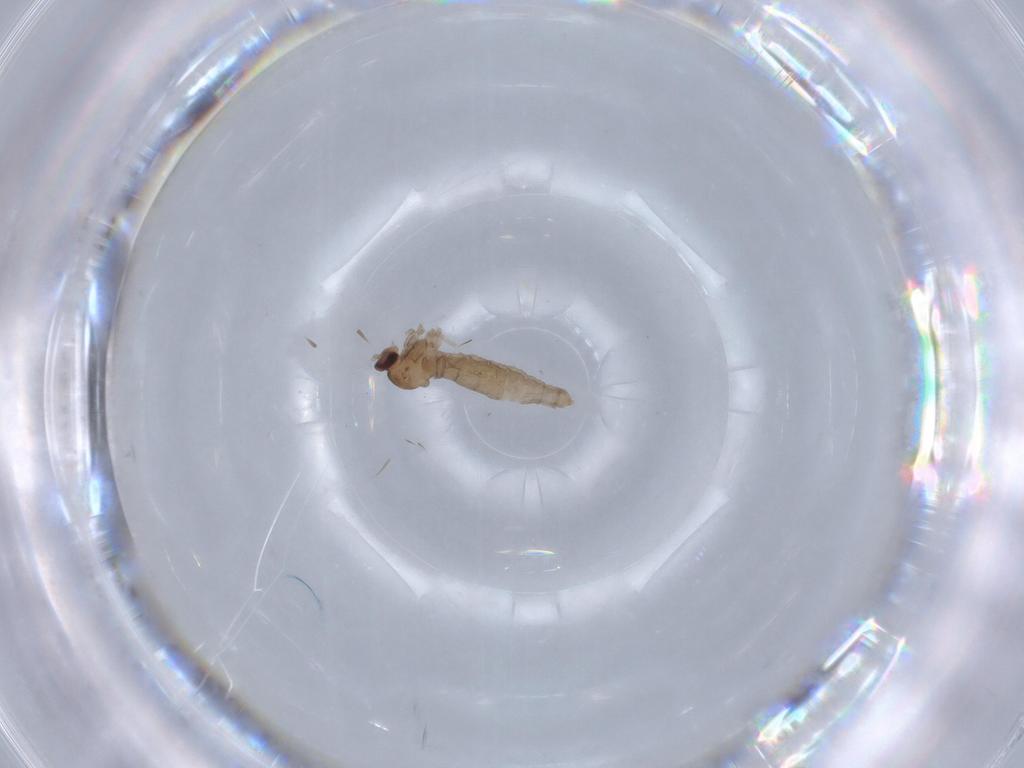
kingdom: Animalia
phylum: Arthropoda
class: Insecta
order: Diptera
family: Cecidomyiidae
